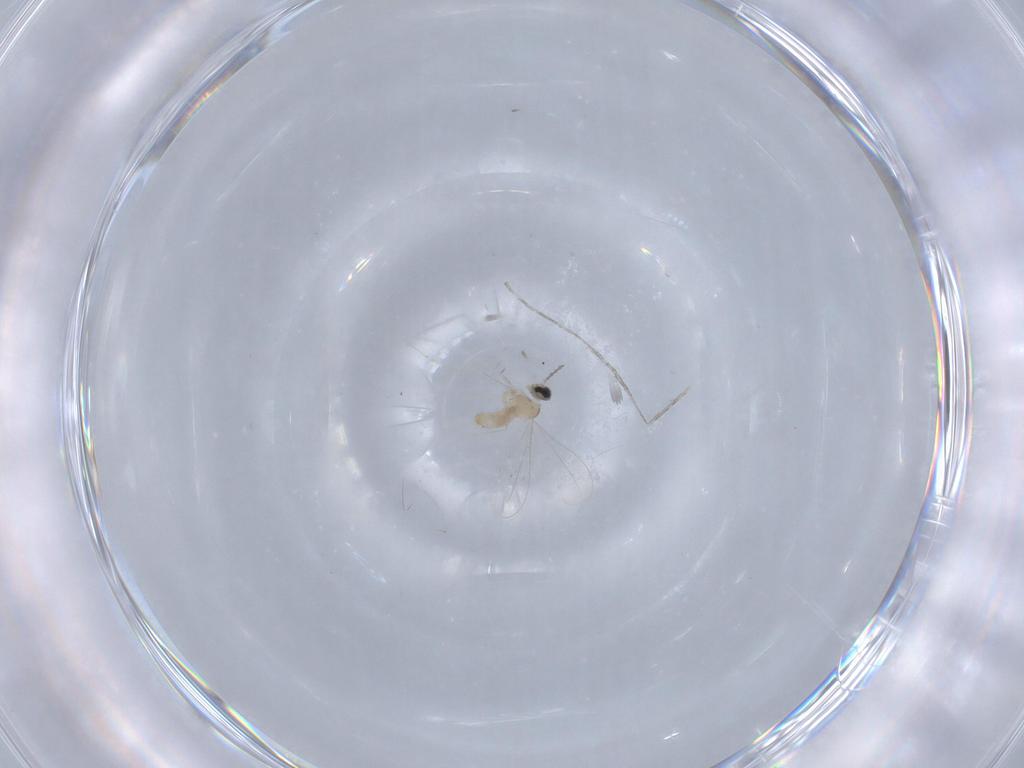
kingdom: Animalia
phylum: Arthropoda
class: Insecta
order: Diptera
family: Cecidomyiidae
